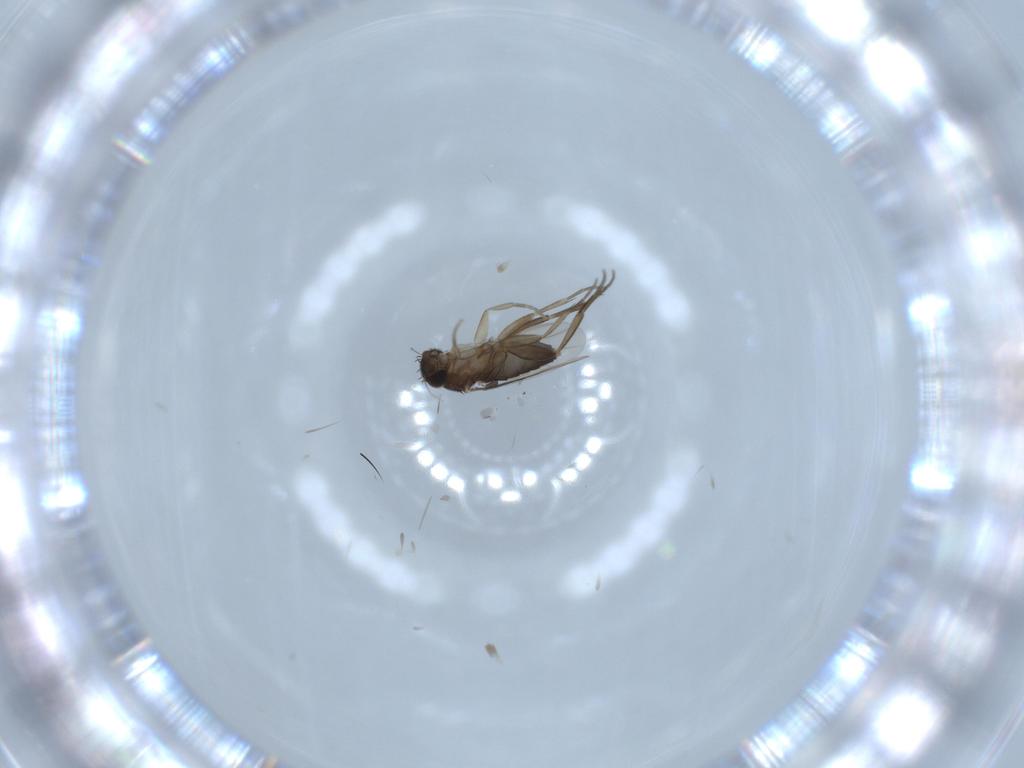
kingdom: Animalia
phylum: Arthropoda
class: Insecta
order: Diptera
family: Phoridae
